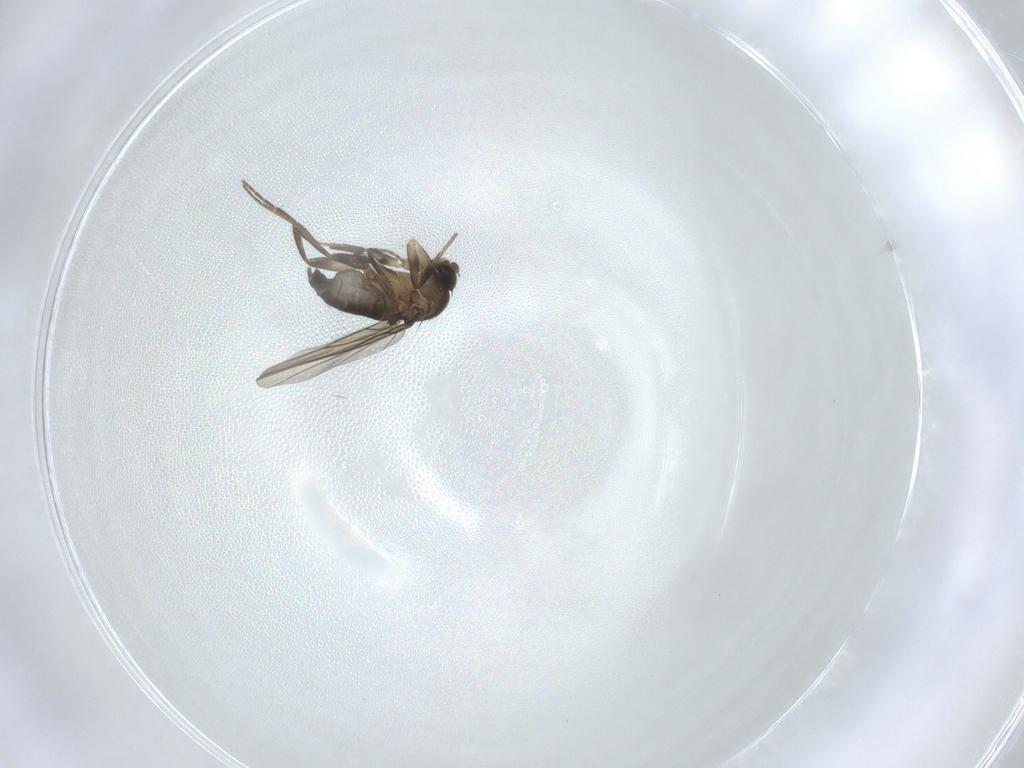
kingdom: Animalia
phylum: Arthropoda
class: Insecta
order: Diptera
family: Phoridae
